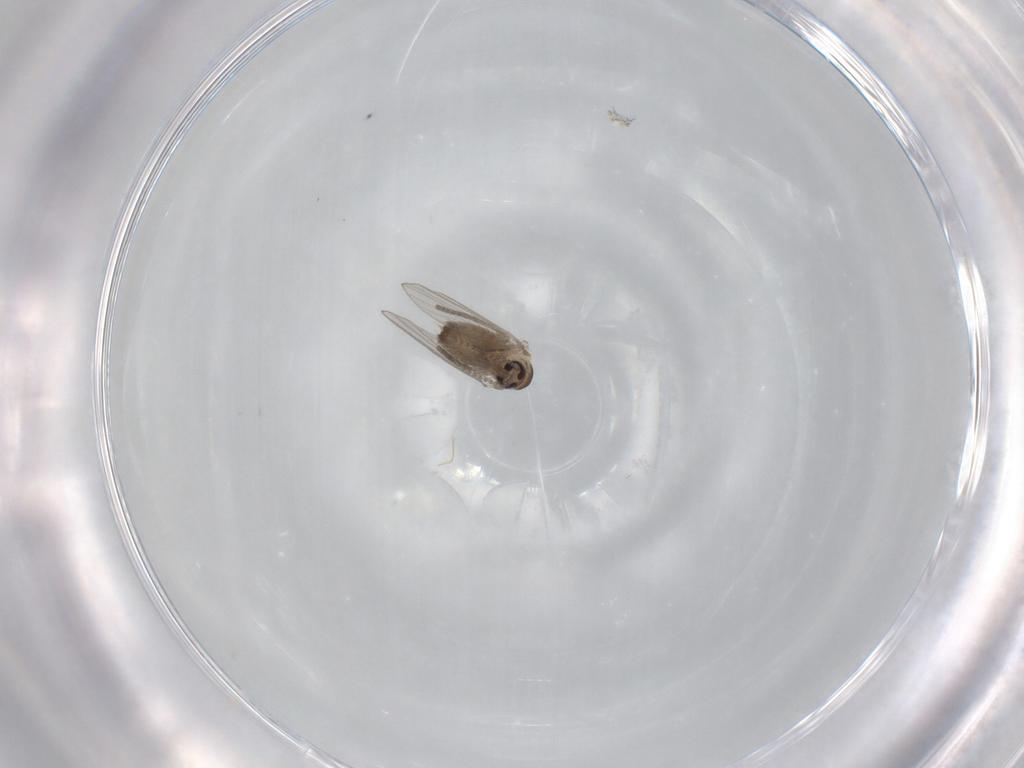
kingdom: Animalia
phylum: Arthropoda
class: Insecta
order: Diptera
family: Psychodidae
